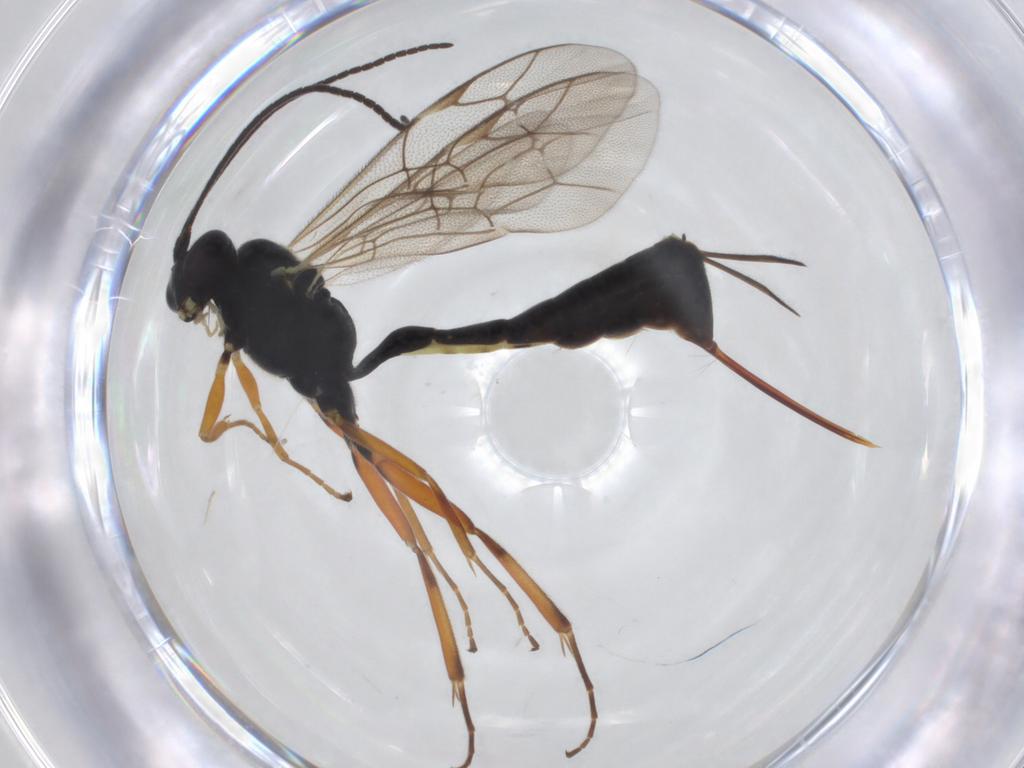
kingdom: Animalia
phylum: Arthropoda
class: Insecta
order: Hymenoptera
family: Ichneumonidae
